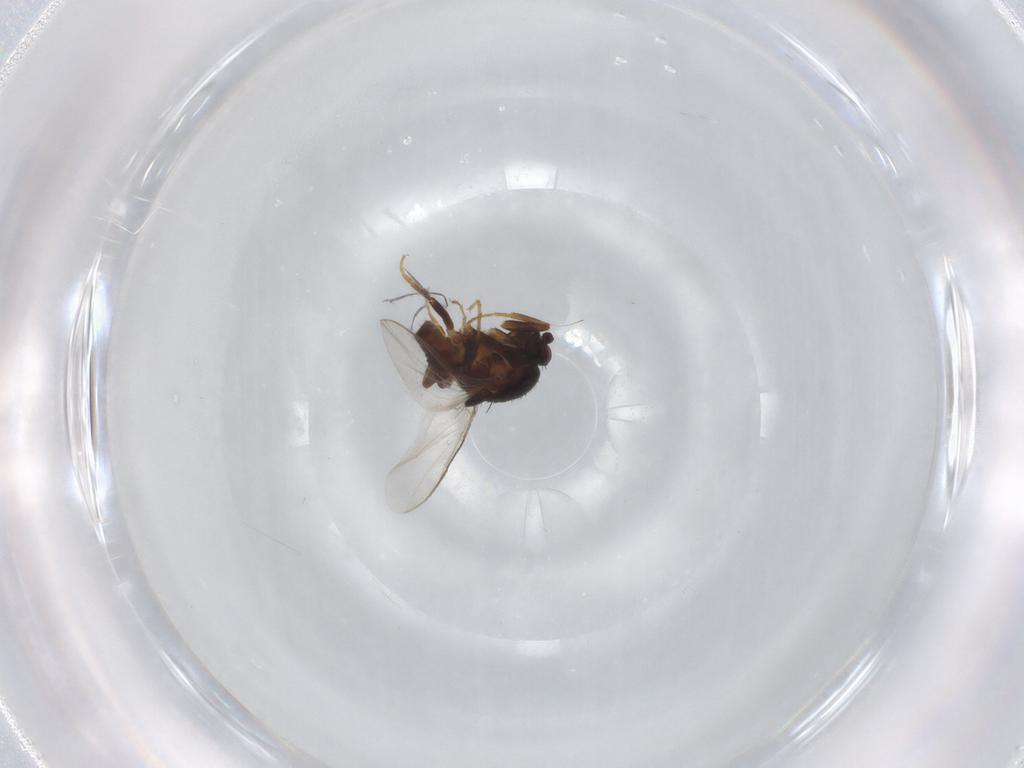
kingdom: Animalia
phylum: Arthropoda
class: Insecta
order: Diptera
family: Sphaeroceridae
